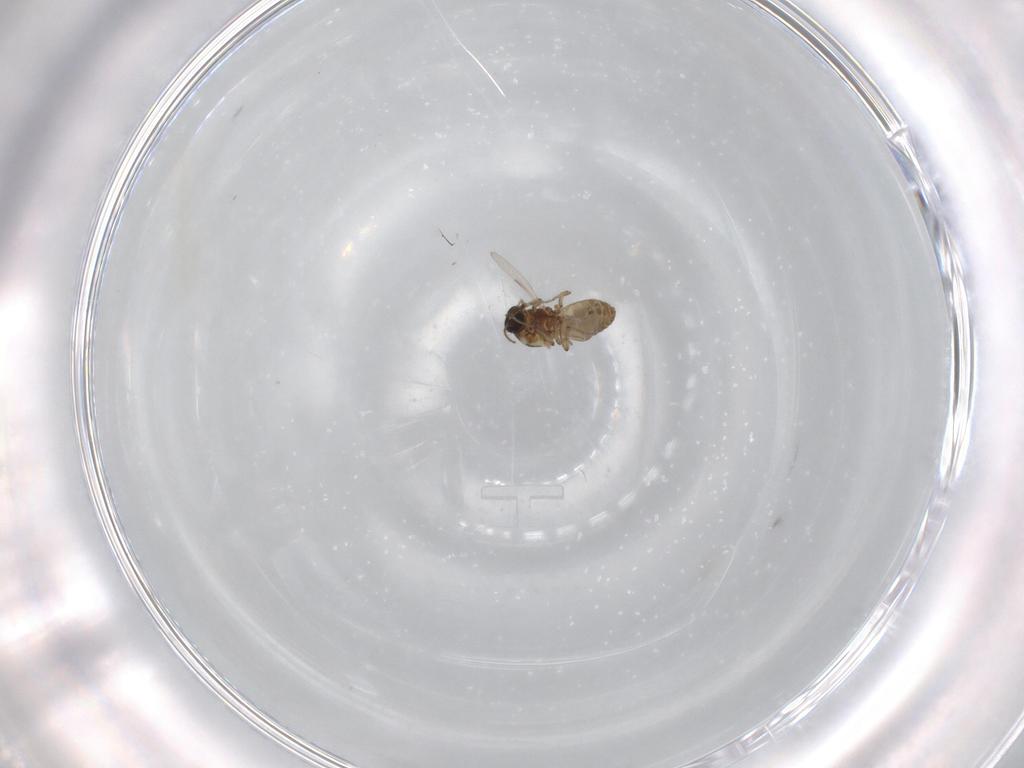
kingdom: Animalia
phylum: Arthropoda
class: Insecta
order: Diptera
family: Ceratopogonidae
